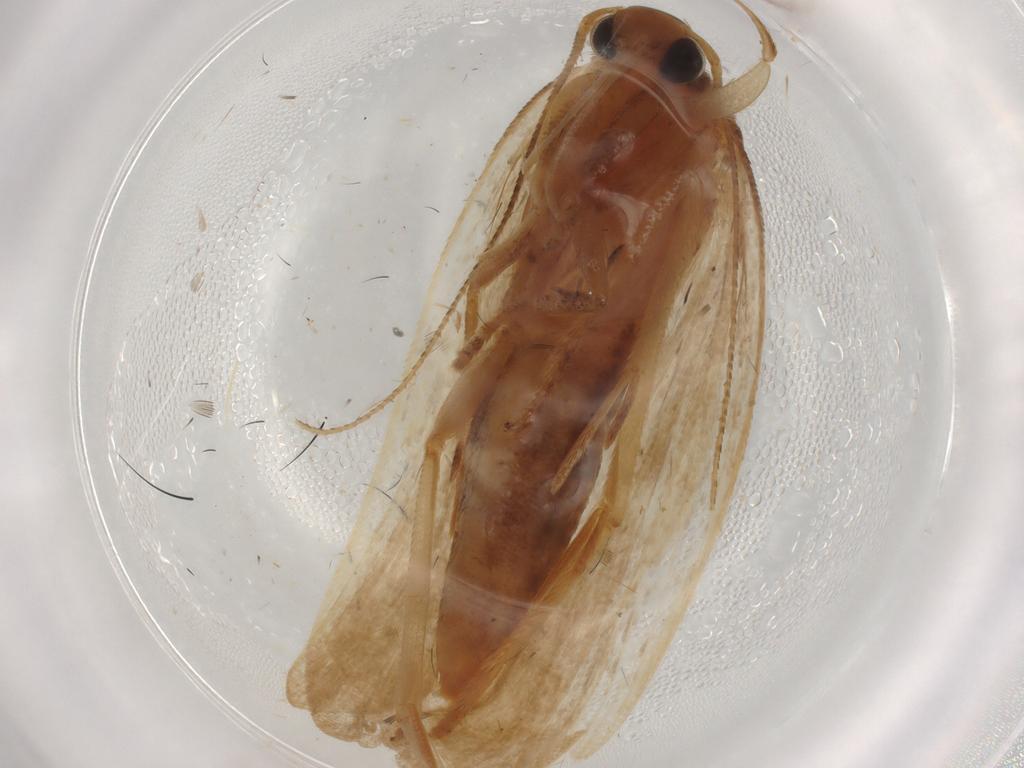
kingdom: Animalia
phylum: Arthropoda
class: Insecta
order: Lepidoptera
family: Gelechiidae
